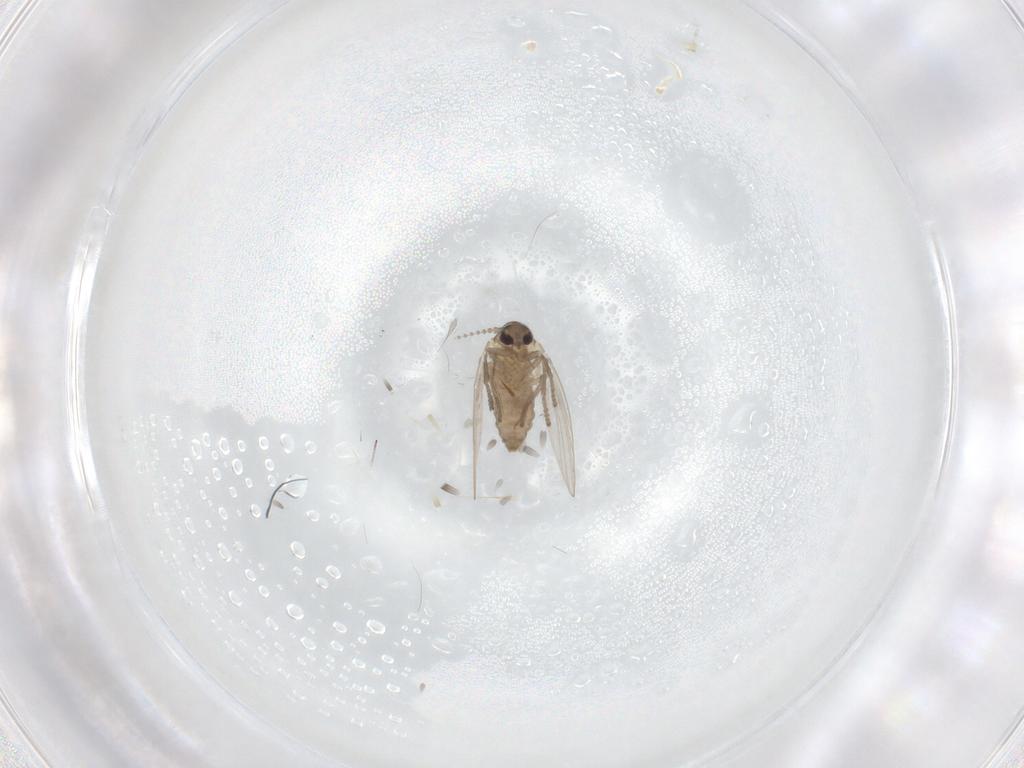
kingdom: Animalia
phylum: Arthropoda
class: Insecta
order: Diptera
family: Psychodidae
